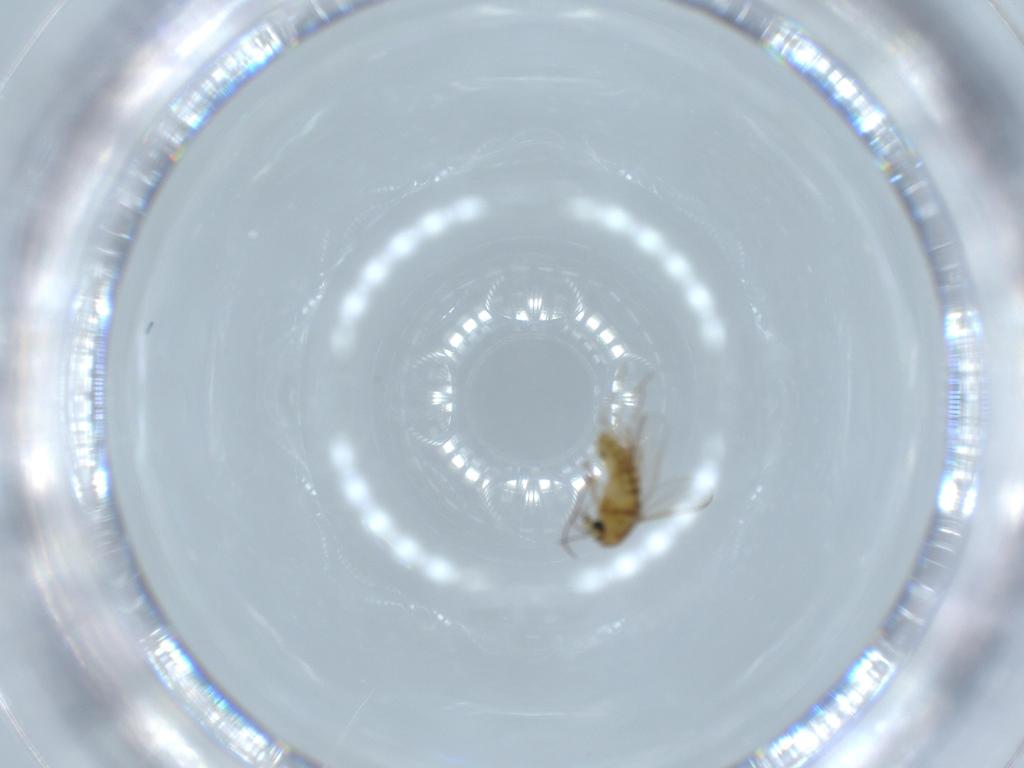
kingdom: Animalia
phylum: Arthropoda
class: Insecta
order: Diptera
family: Chironomidae
